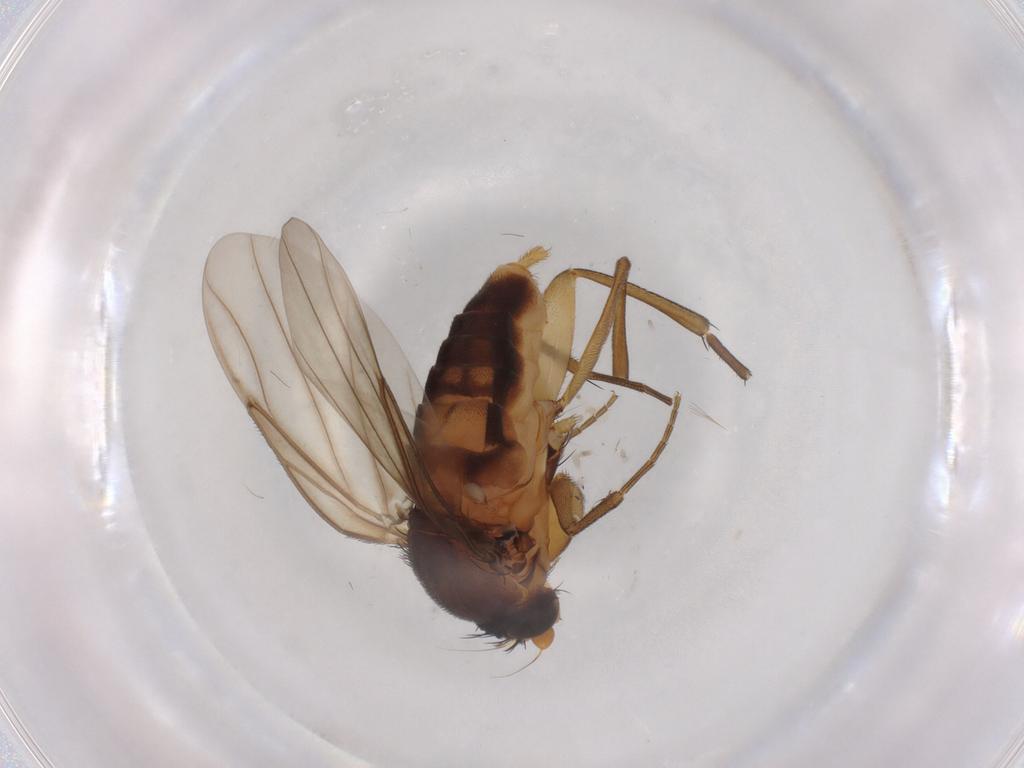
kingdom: Animalia
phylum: Arthropoda
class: Insecta
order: Diptera
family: Phoridae
